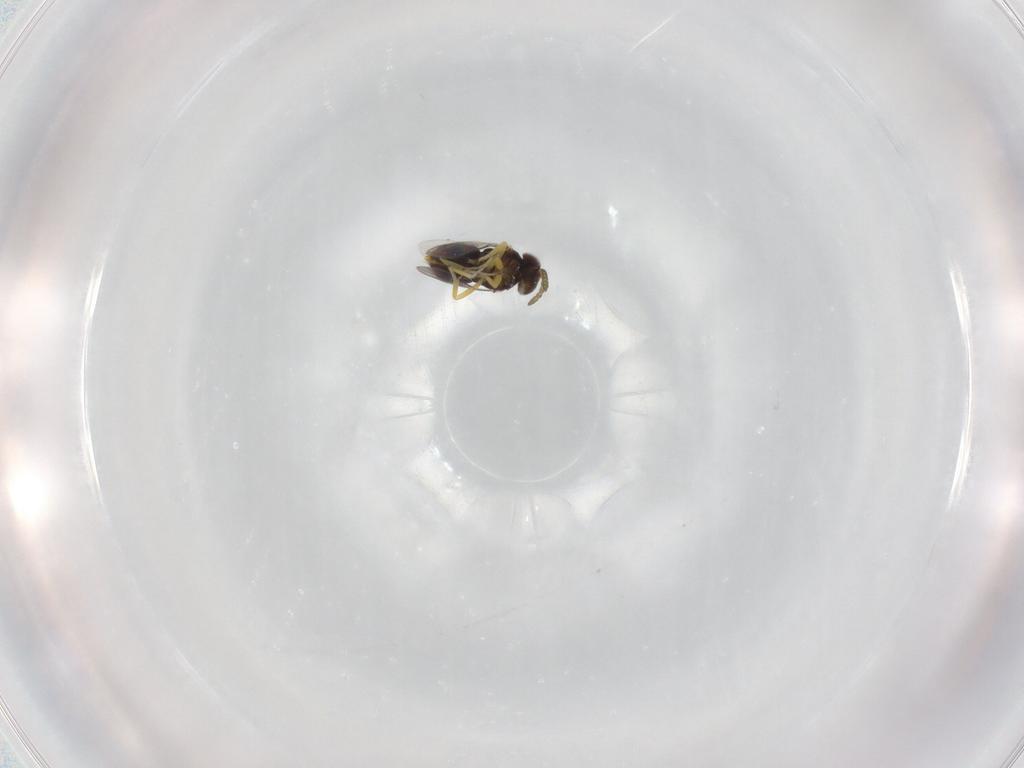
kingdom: Animalia
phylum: Arthropoda
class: Insecta
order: Hymenoptera
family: Aphelinidae
